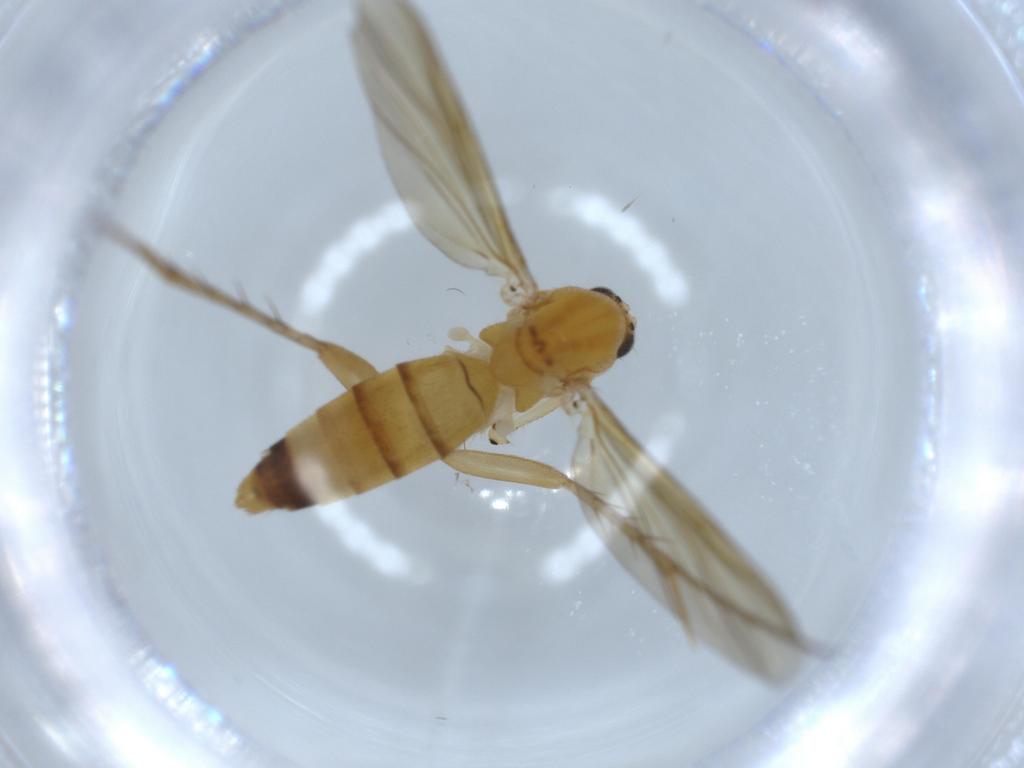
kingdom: Animalia
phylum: Arthropoda
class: Insecta
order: Diptera
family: Mycetophilidae
